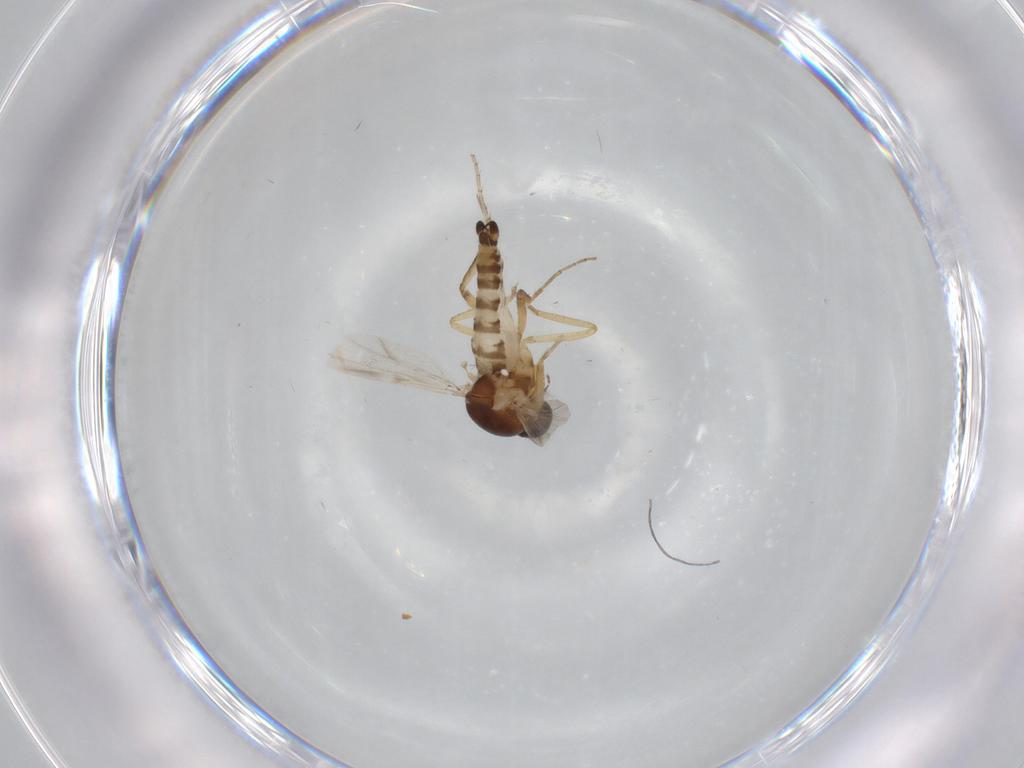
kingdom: Animalia
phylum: Arthropoda
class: Insecta
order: Diptera
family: Ceratopogonidae
